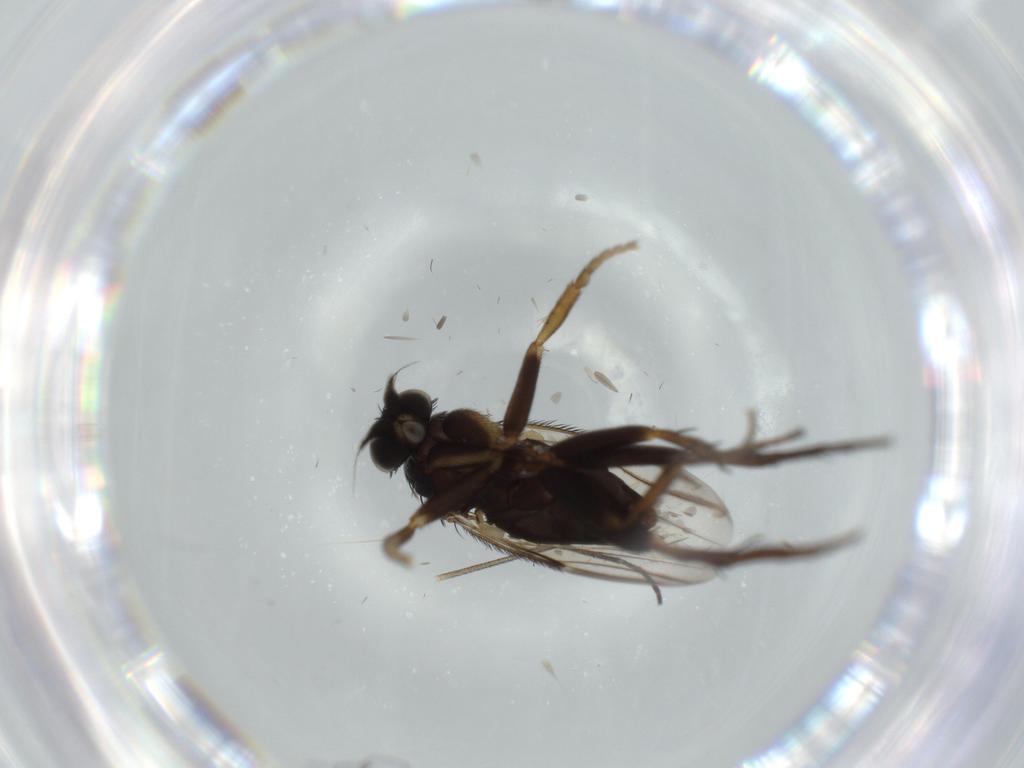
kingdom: Animalia
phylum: Arthropoda
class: Insecta
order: Diptera
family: Phoridae
